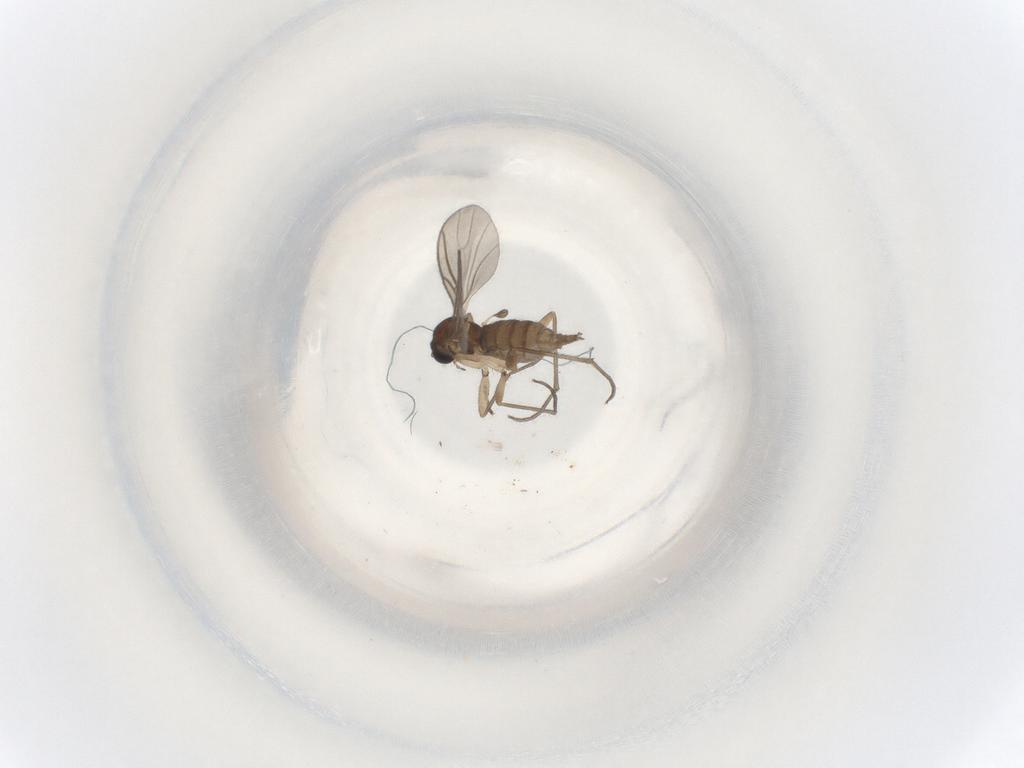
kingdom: Animalia
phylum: Arthropoda
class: Insecta
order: Diptera
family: Sciaridae
